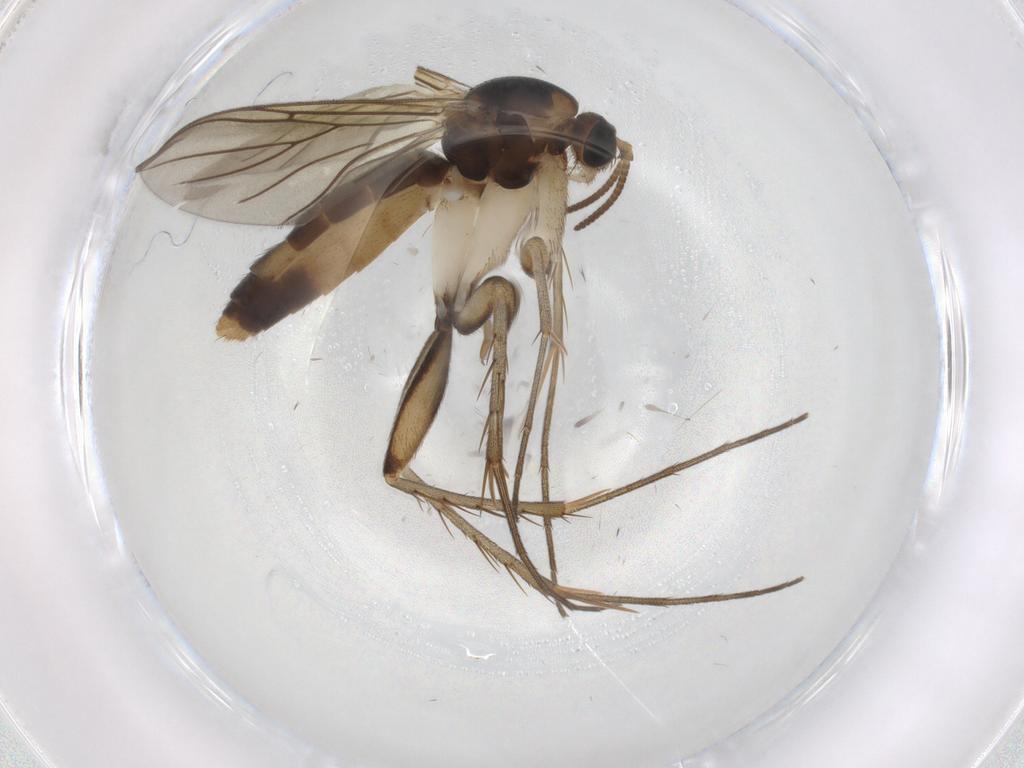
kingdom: Animalia
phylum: Arthropoda
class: Insecta
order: Diptera
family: Mycetophilidae
